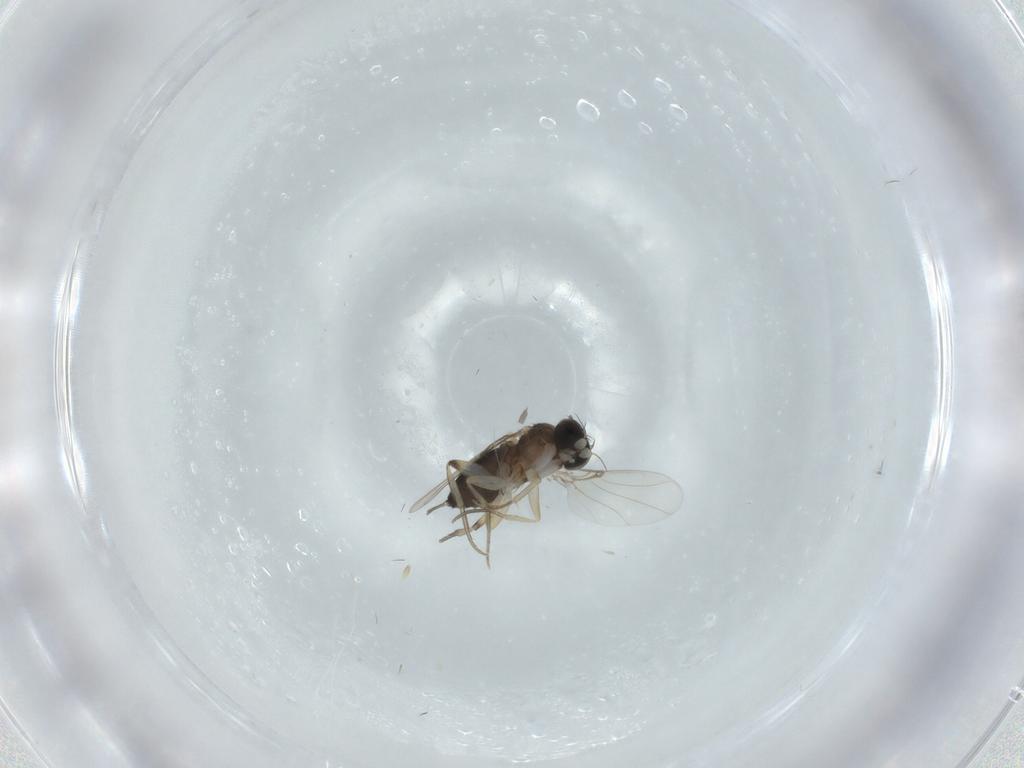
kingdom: Animalia
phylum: Arthropoda
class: Insecta
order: Diptera
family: Phoridae
